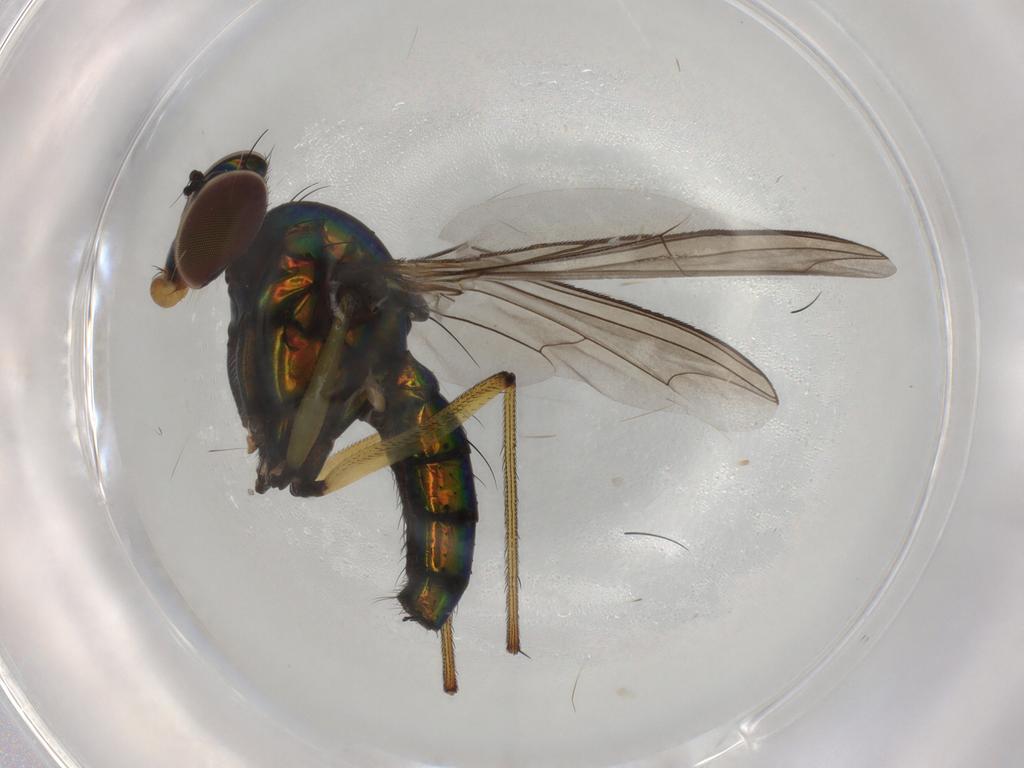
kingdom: Animalia
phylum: Arthropoda
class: Insecta
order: Diptera
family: Dolichopodidae
